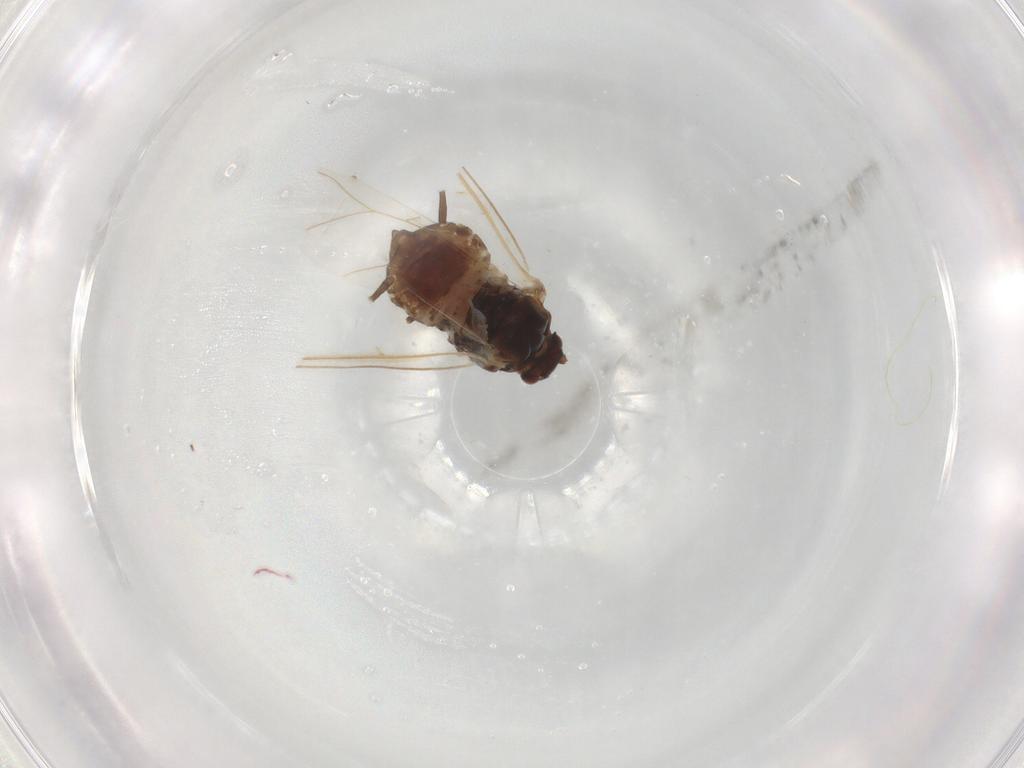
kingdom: Animalia
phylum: Arthropoda
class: Insecta
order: Hemiptera
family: Aphididae
